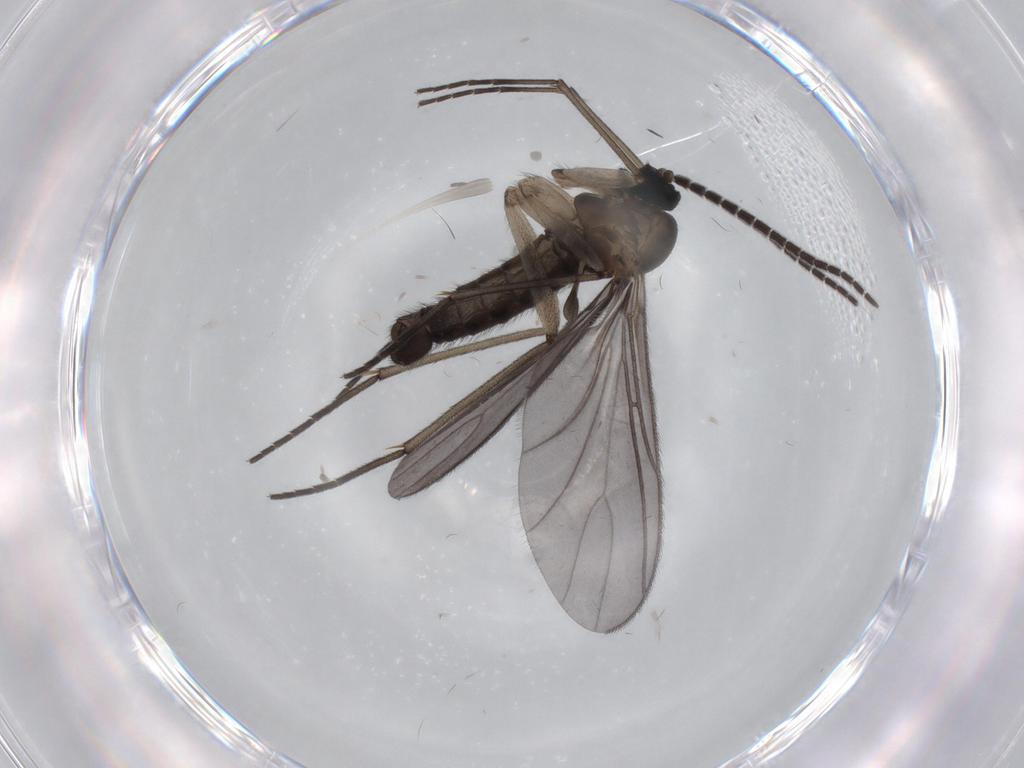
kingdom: Animalia
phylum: Arthropoda
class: Insecta
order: Diptera
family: Sciaridae
